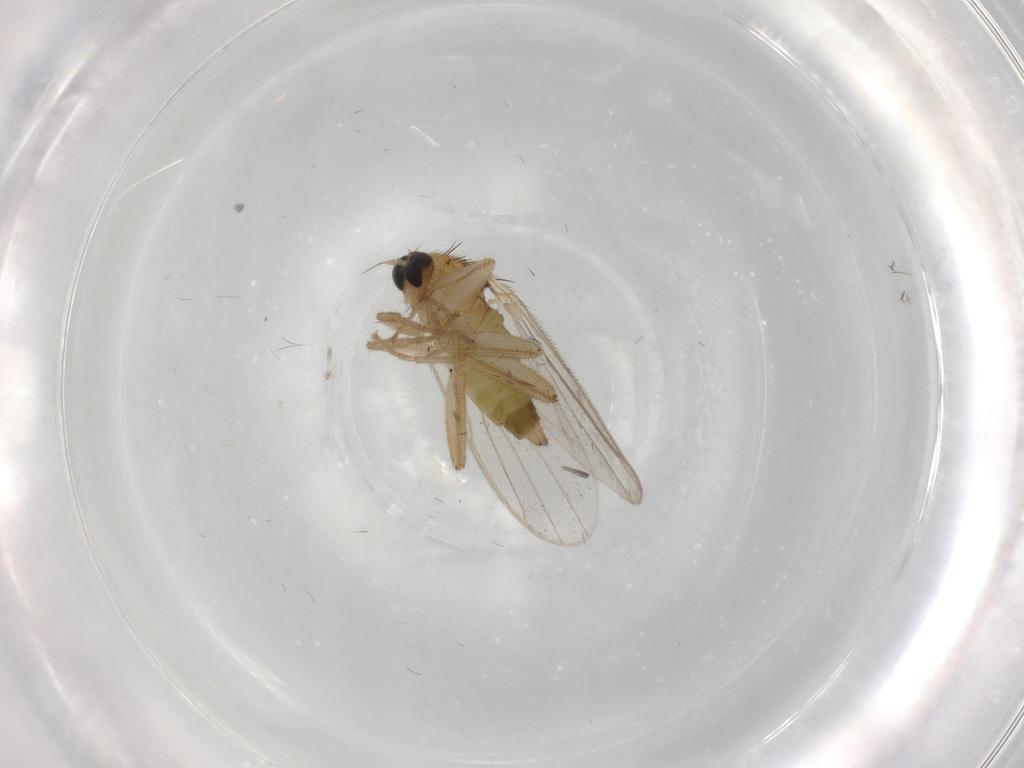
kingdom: Animalia
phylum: Arthropoda
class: Insecta
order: Diptera
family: Hybotidae
